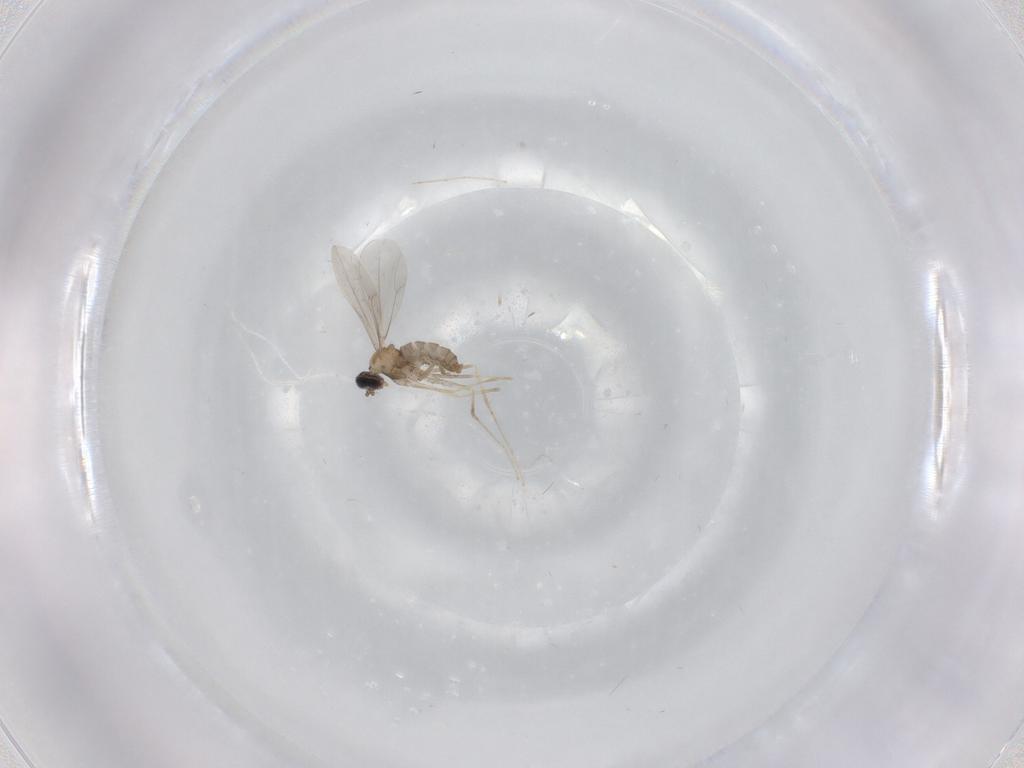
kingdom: Animalia
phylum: Arthropoda
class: Insecta
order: Diptera
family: Cecidomyiidae
